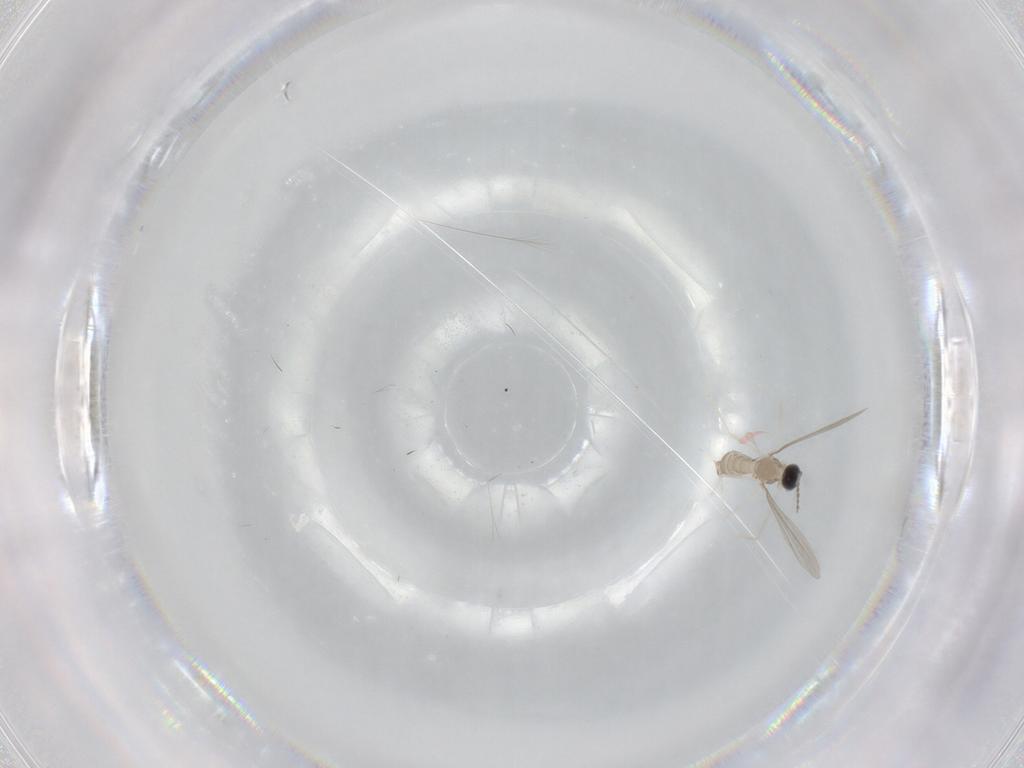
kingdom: Animalia
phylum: Arthropoda
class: Insecta
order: Diptera
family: Cecidomyiidae
